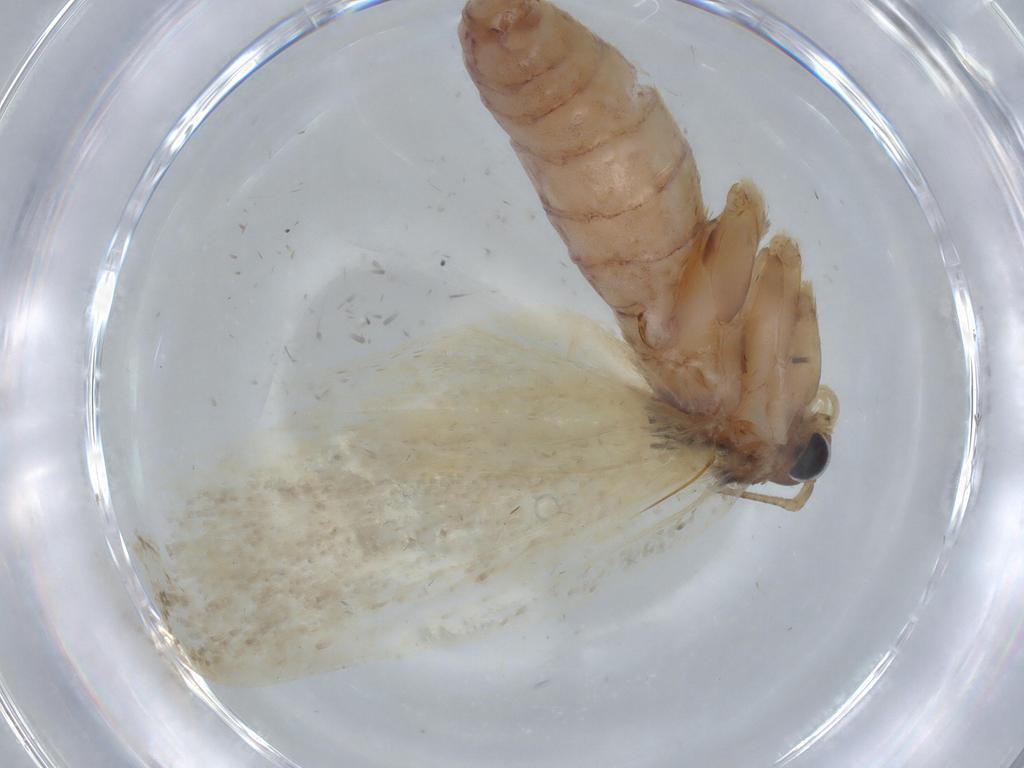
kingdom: Animalia
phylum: Arthropoda
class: Insecta
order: Lepidoptera
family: Depressariidae
